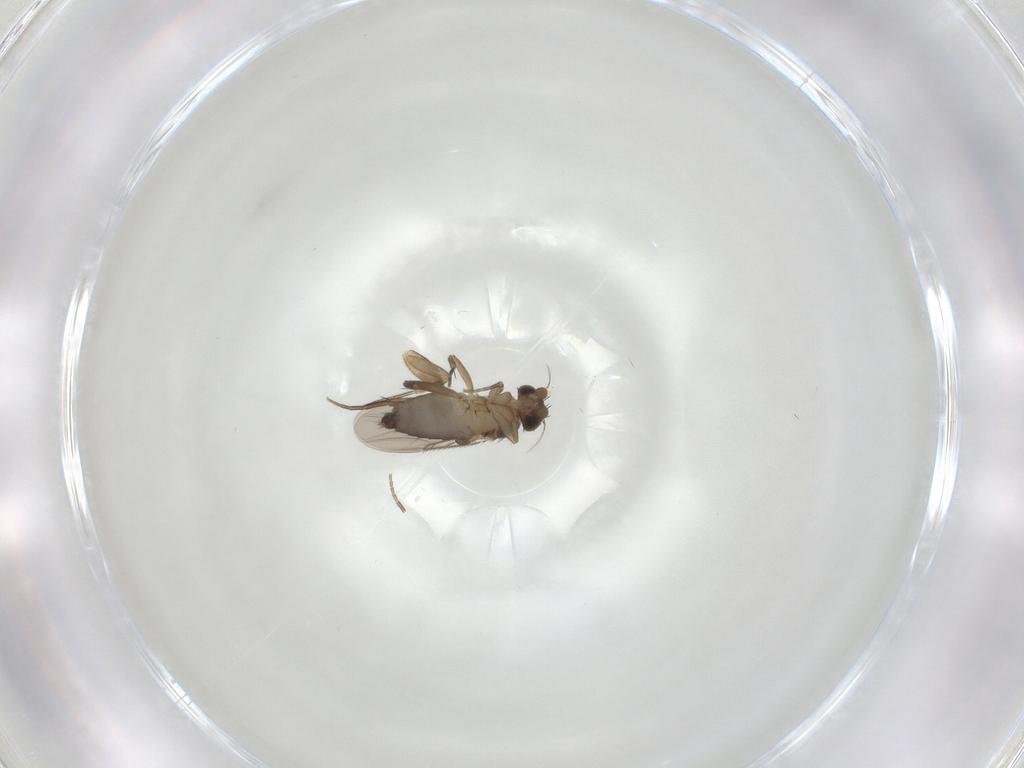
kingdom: Animalia
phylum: Arthropoda
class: Insecta
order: Diptera
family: Phoridae
